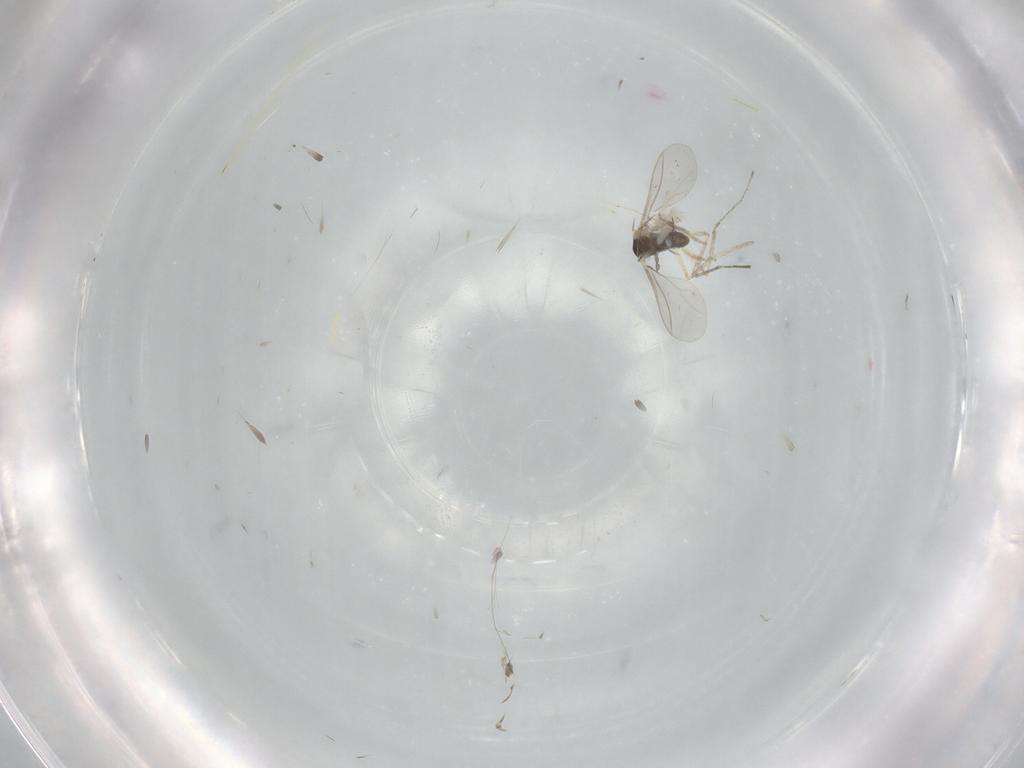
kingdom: Animalia
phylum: Arthropoda
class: Insecta
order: Diptera
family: Cecidomyiidae
